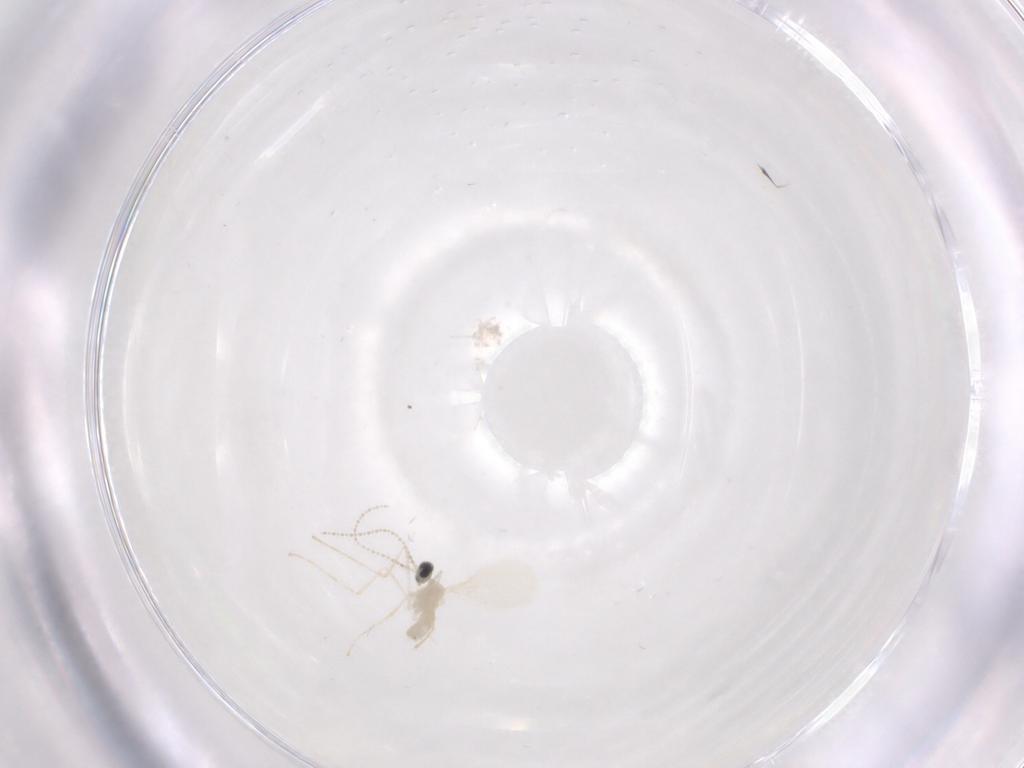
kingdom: Animalia
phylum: Arthropoda
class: Insecta
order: Diptera
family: Cecidomyiidae
